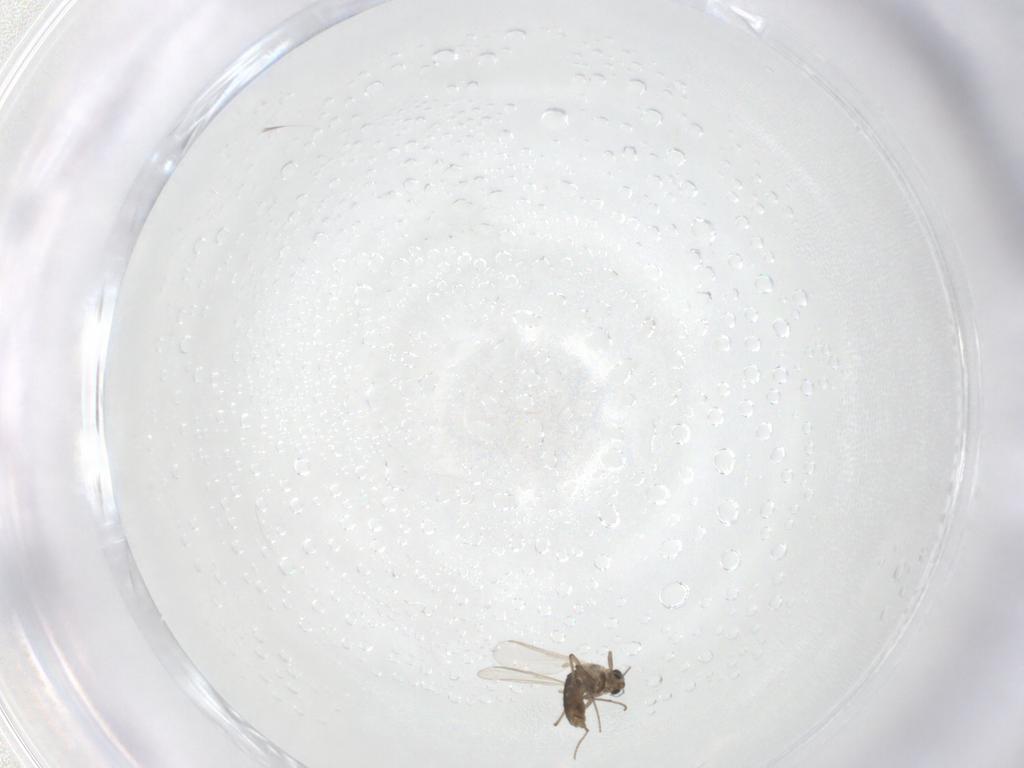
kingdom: Animalia
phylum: Arthropoda
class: Insecta
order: Diptera
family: Chironomidae
